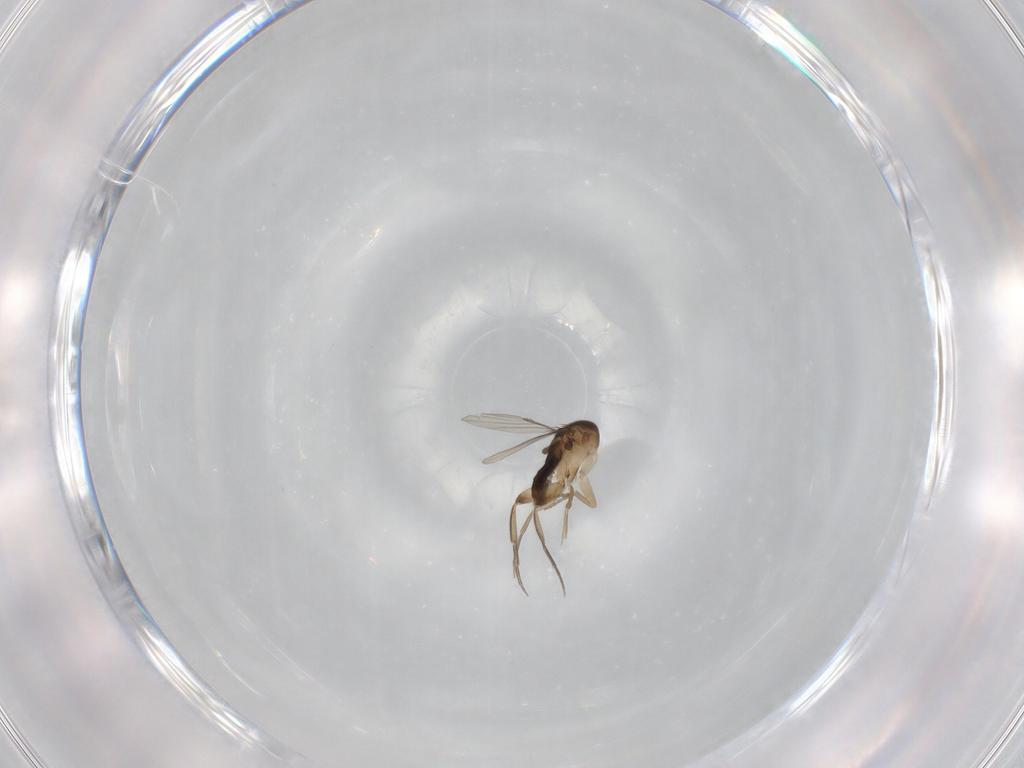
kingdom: Animalia
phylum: Arthropoda
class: Insecta
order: Diptera
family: Phoridae
